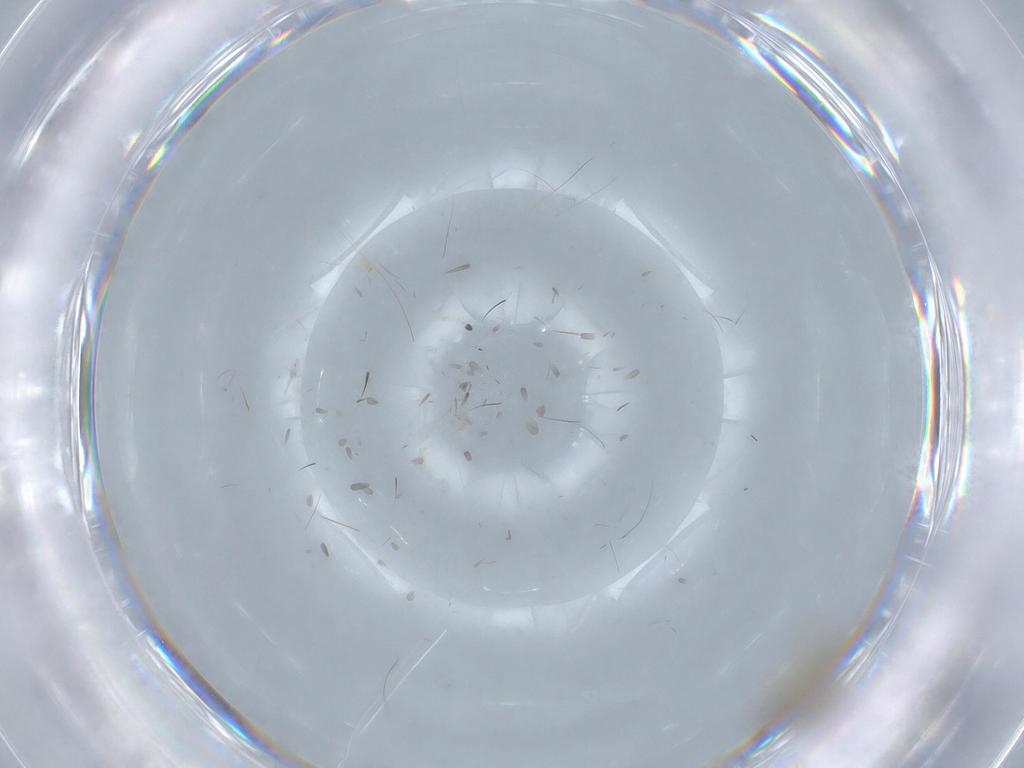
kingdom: Animalia
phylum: Arthropoda
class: Insecta
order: Diptera
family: Chironomidae
